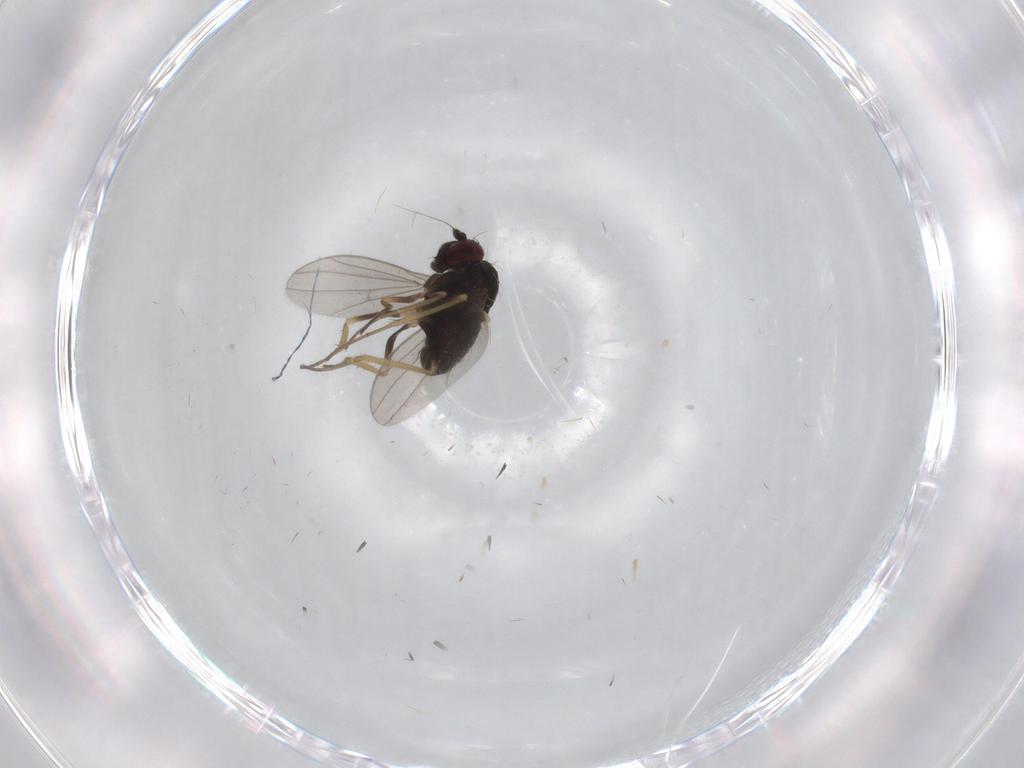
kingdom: Animalia
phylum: Arthropoda
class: Insecta
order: Diptera
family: Dolichopodidae
